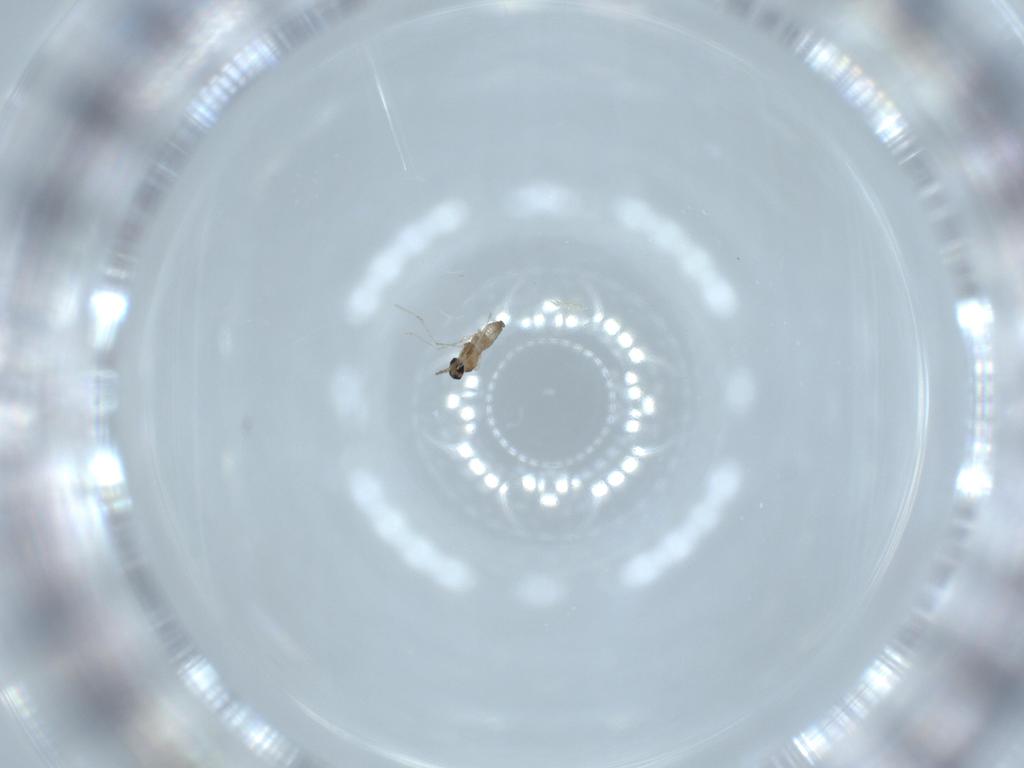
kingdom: Animalia
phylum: Arthropoda
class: Insecta
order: Diptera
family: Cecidomyiidae
